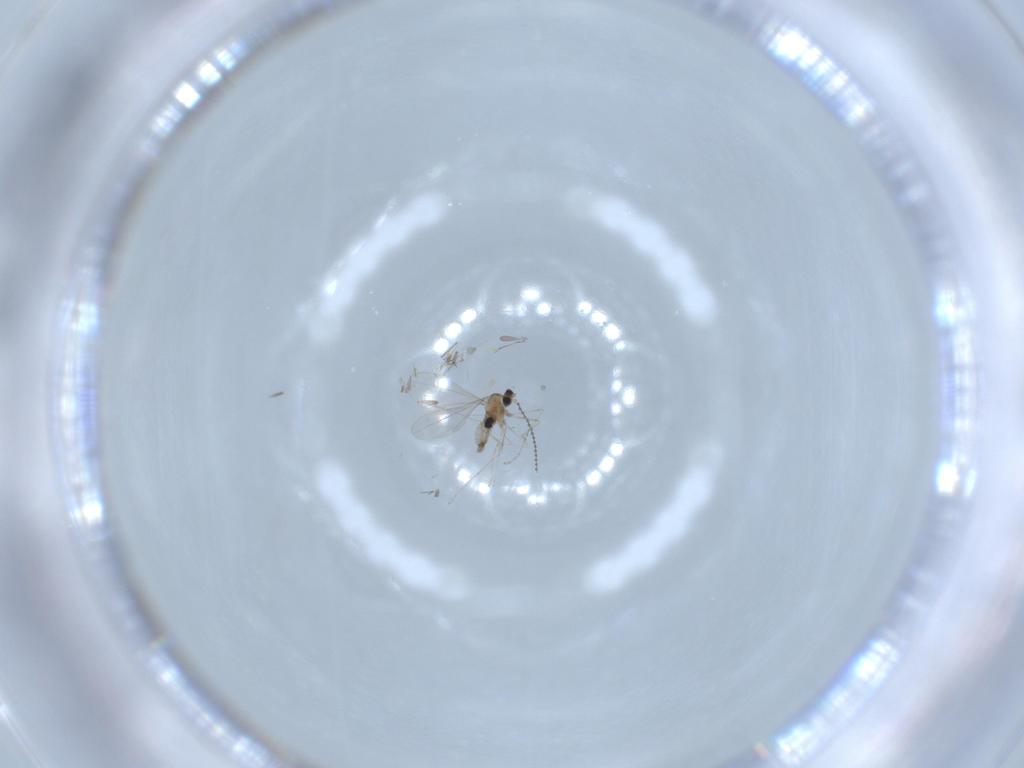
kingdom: Animalia
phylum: Arthropoda
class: Insecta
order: Diptera
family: Cecidomyiidae
